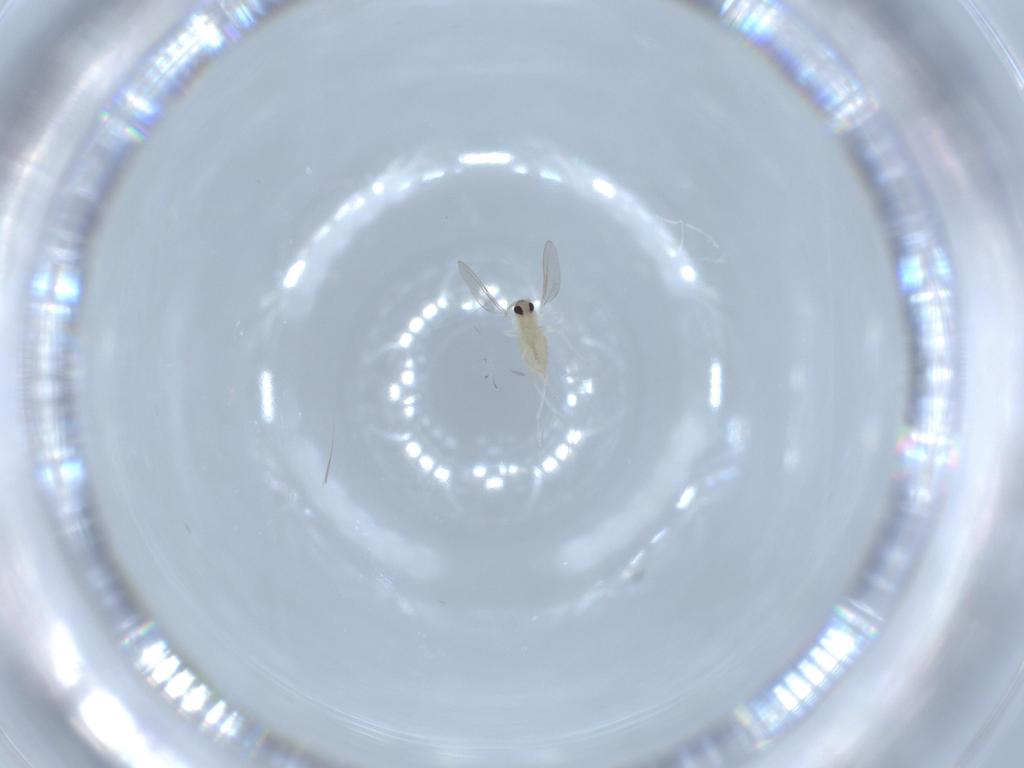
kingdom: Animalia
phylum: Arthropoda
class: Insecta
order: Diptera
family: Cecidomyiidae
